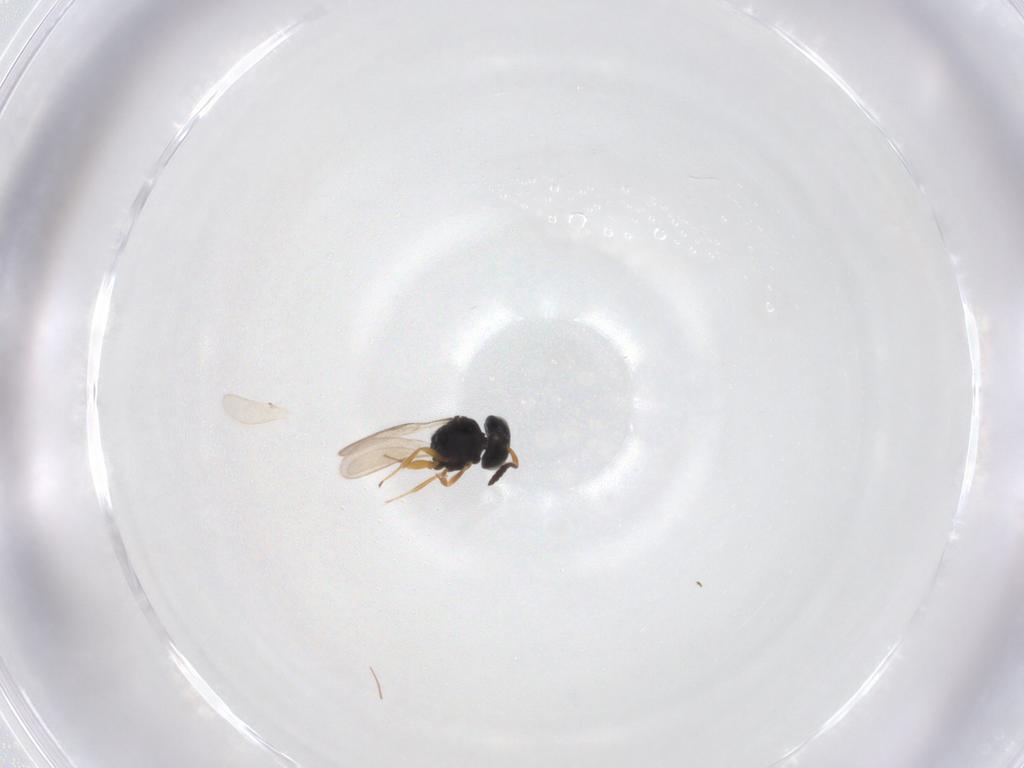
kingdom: Animalia
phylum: Arthropoda
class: Insecta
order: Hymenoptera
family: Scelionidae
